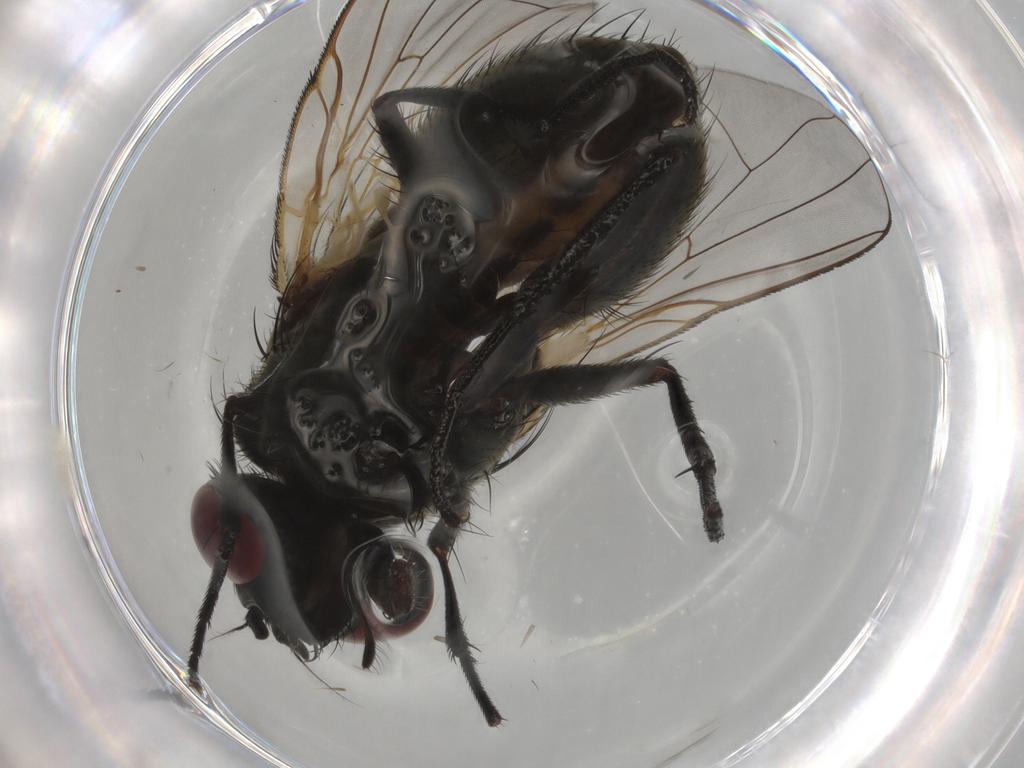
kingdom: Animalia
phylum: Arthropoda
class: Insecta
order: Diptera
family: Muscidae
